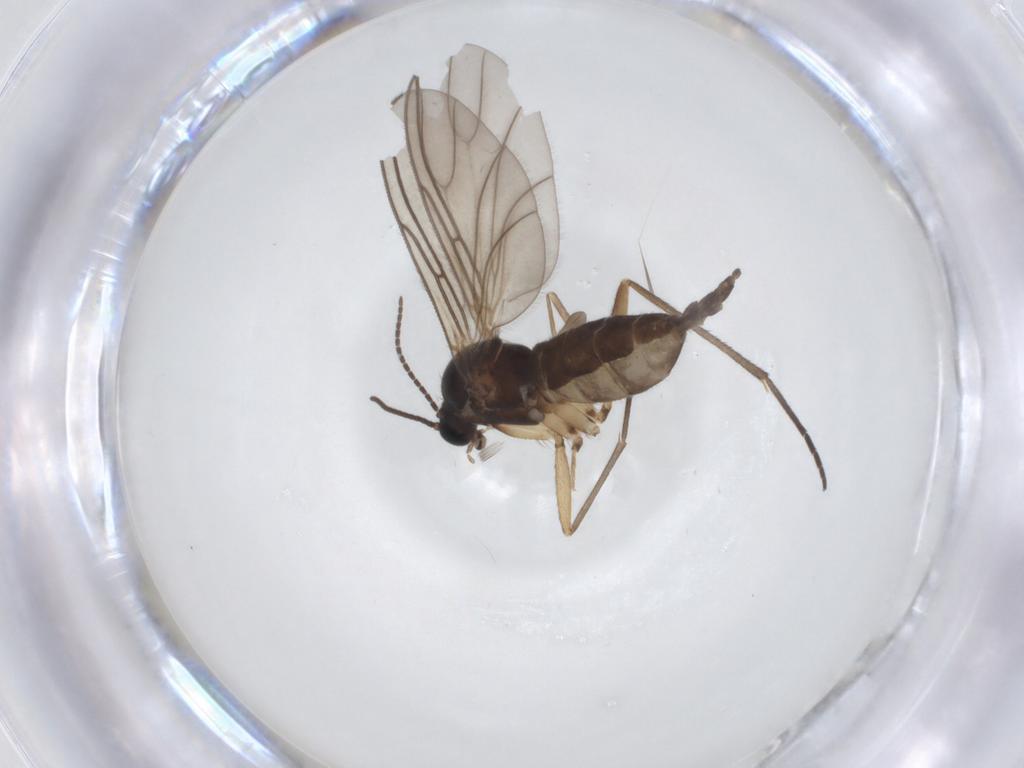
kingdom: Animalia
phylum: Arthropoda
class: Insecta
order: Diptera
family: Sciaridae
